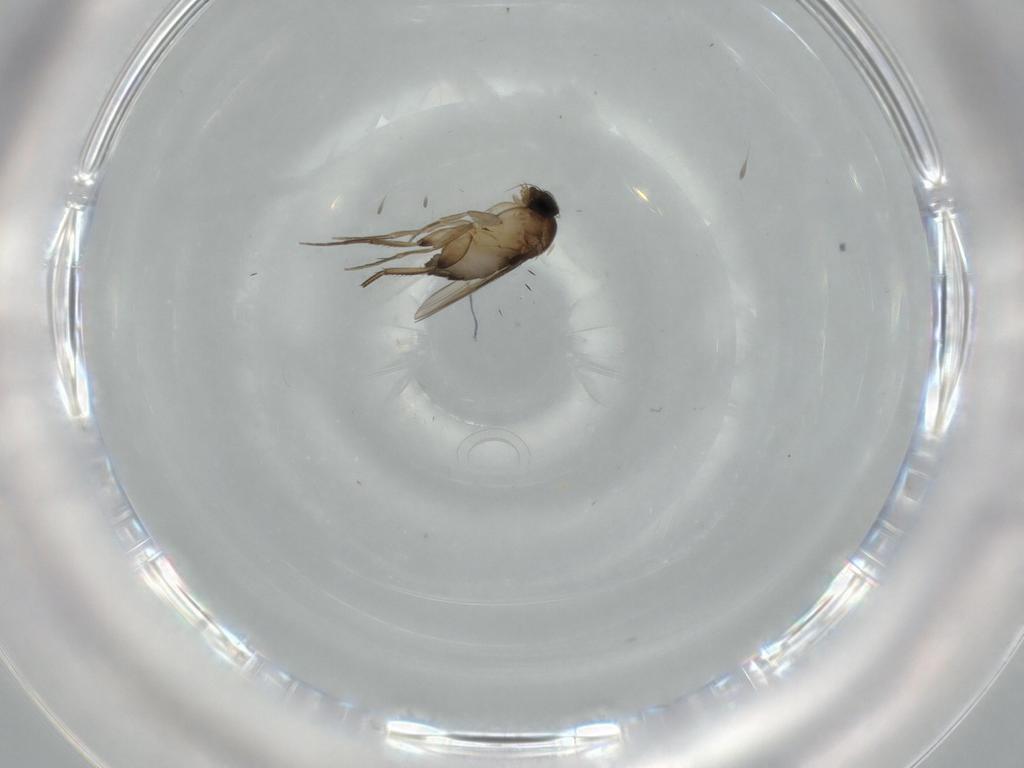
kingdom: Animalia
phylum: Arthropoda
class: Insecta
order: Diptera
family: Phoridae
